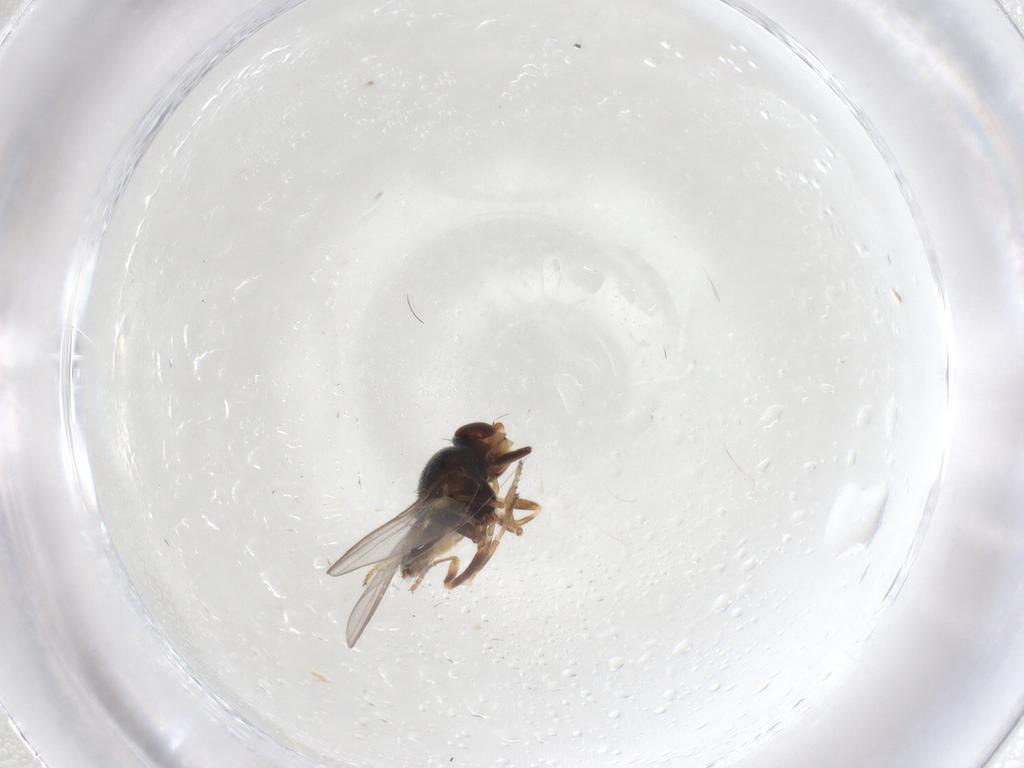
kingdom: Animalia
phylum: Arthropoda
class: Insecta
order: Diptera
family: Chloropidae
